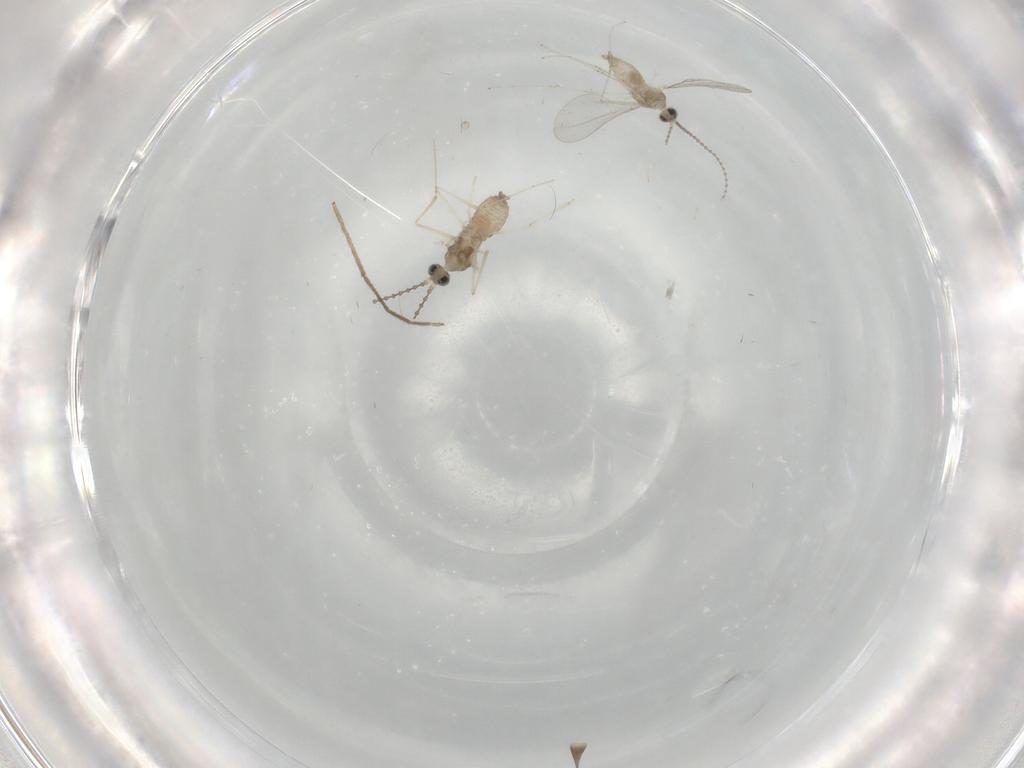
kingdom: Animalia
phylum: Arthropoda
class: Insecta
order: Diptera
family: Cecidomyiidae
